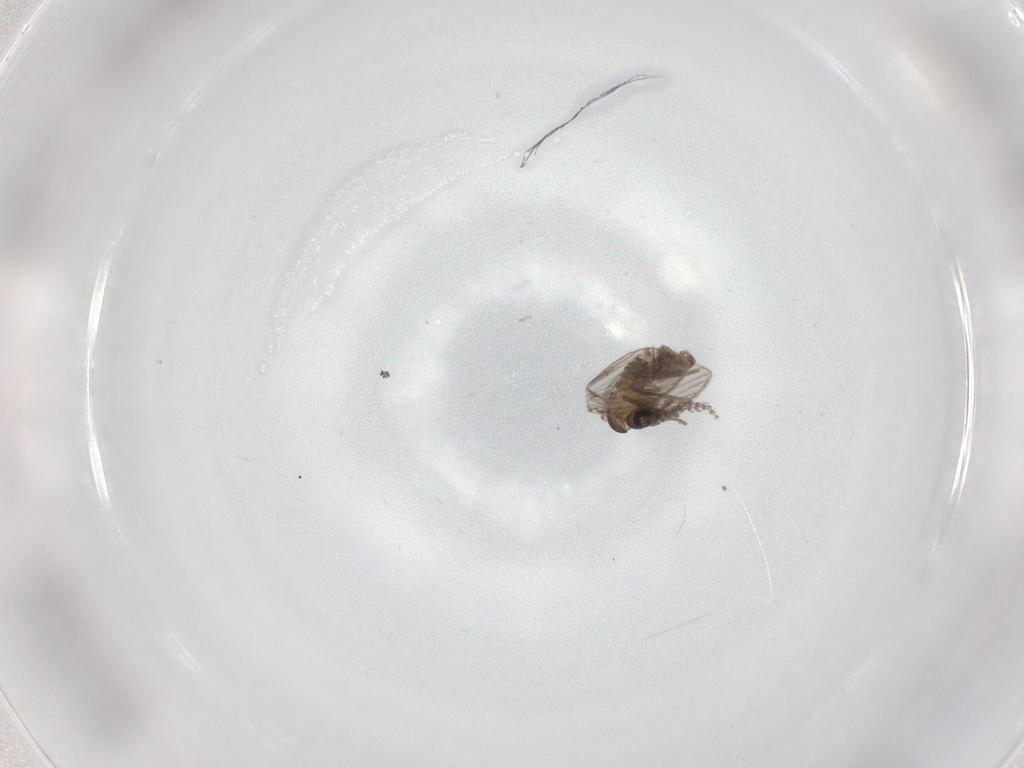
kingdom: Animalia
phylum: Arthropoda
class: Insecta
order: Diptera
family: Psychodidae
